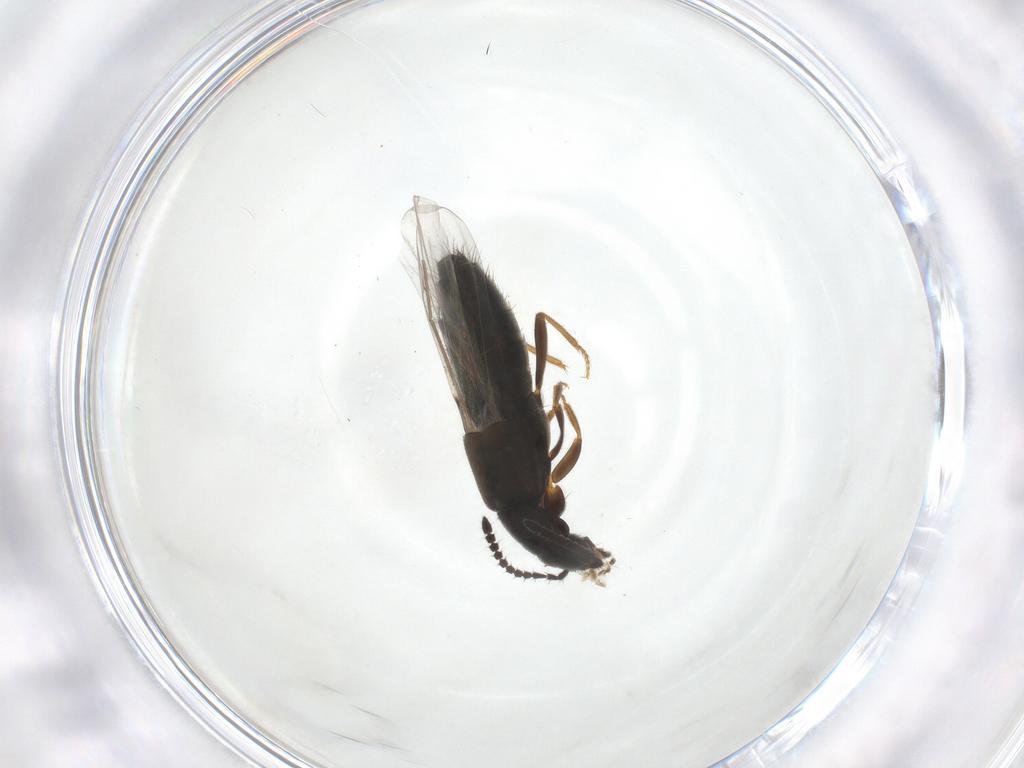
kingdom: Animalia
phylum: Arthropoda
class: Insecta
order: Coleoptera
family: Staphylinidae
